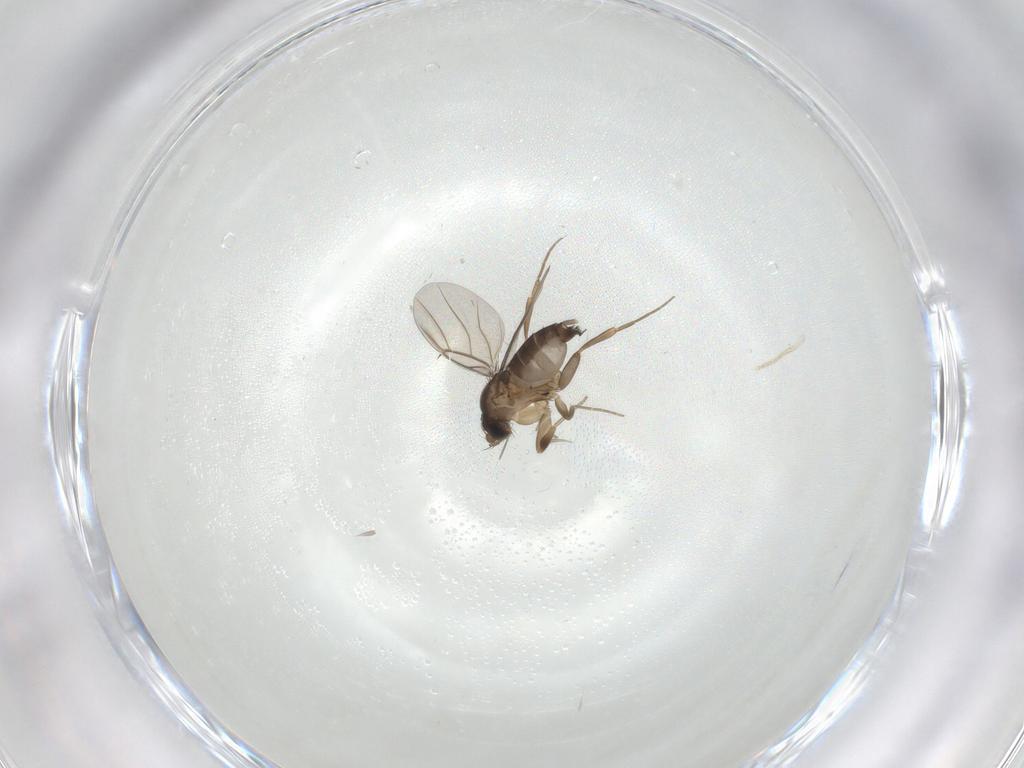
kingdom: Animalia
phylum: Arthropoda
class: Insecta
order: Diptera
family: Phoridae
